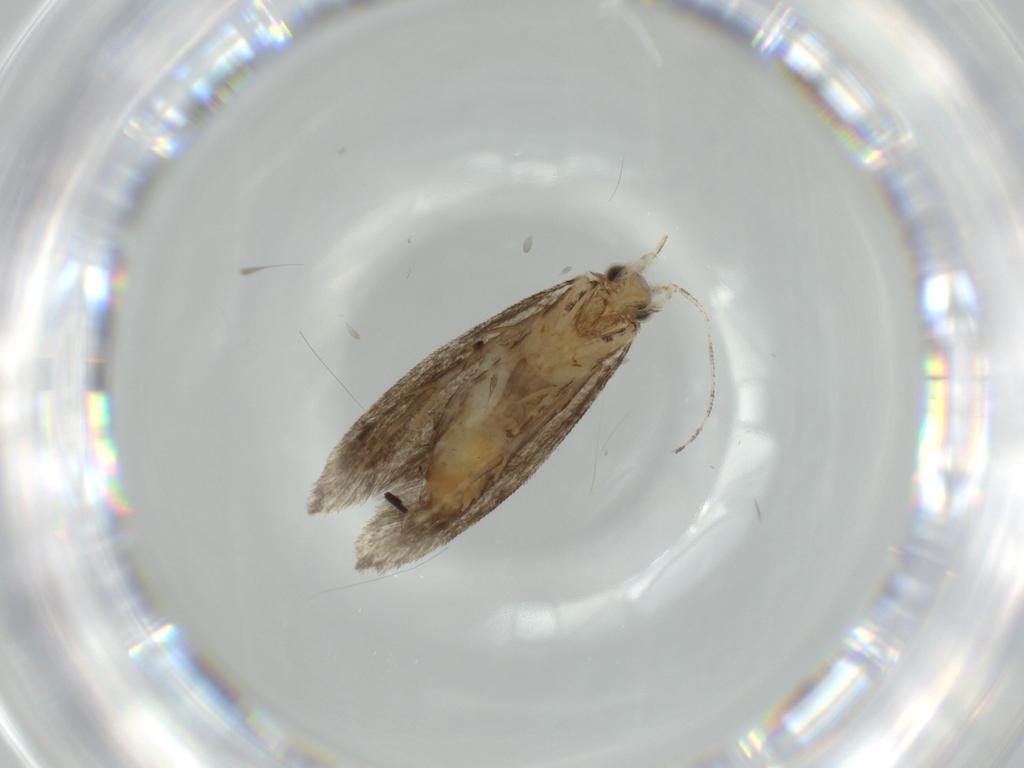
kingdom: Animalia
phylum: Arthropoda
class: Insecta
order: Lepidoptera
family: Tineidae
